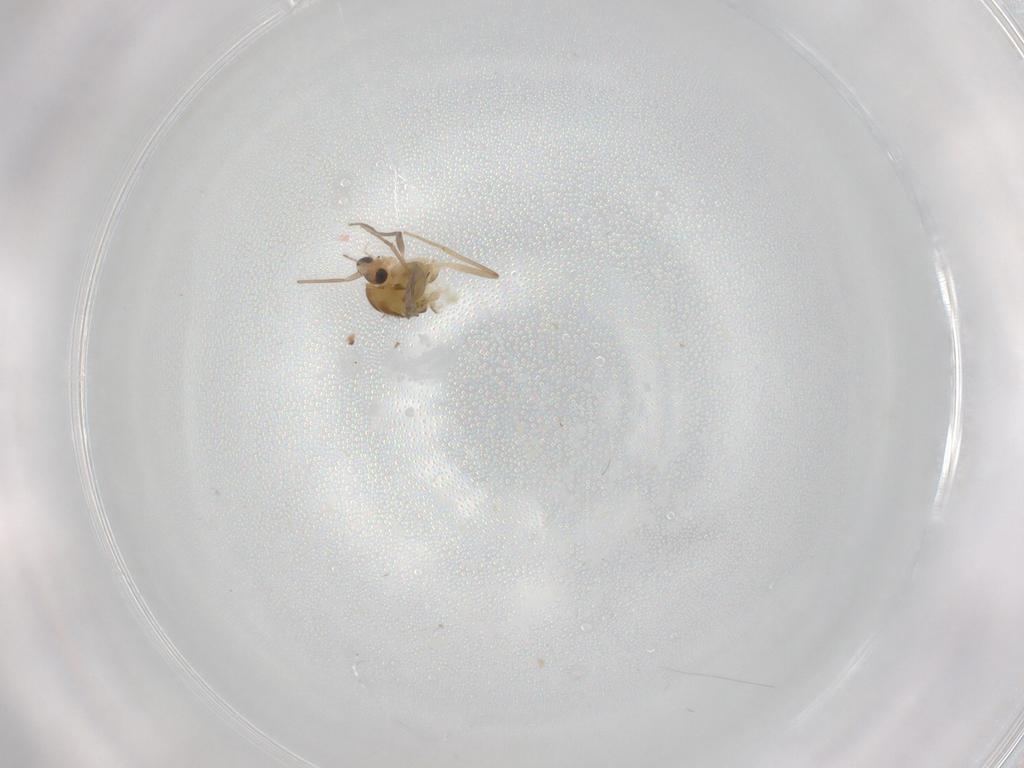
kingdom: Animalia
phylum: Arthropoda
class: Insecta
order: Diptera
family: Chironomidae
